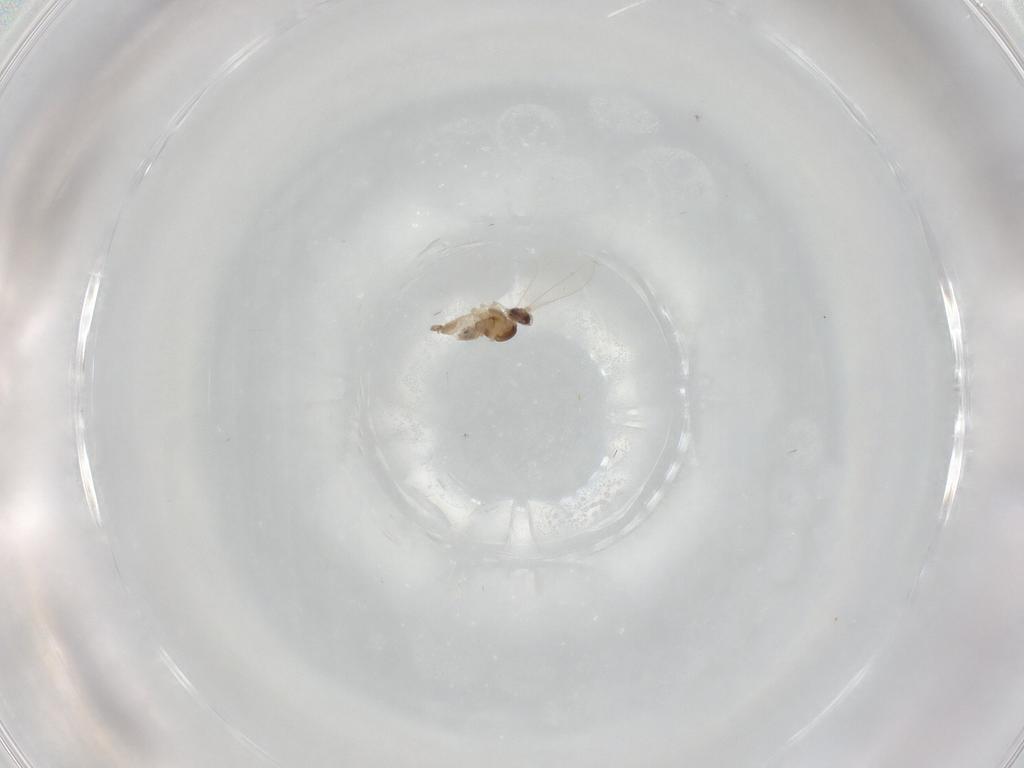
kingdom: Animalia
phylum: Arthropoda
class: Insecta
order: Diptera
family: Cecidomyiidae
